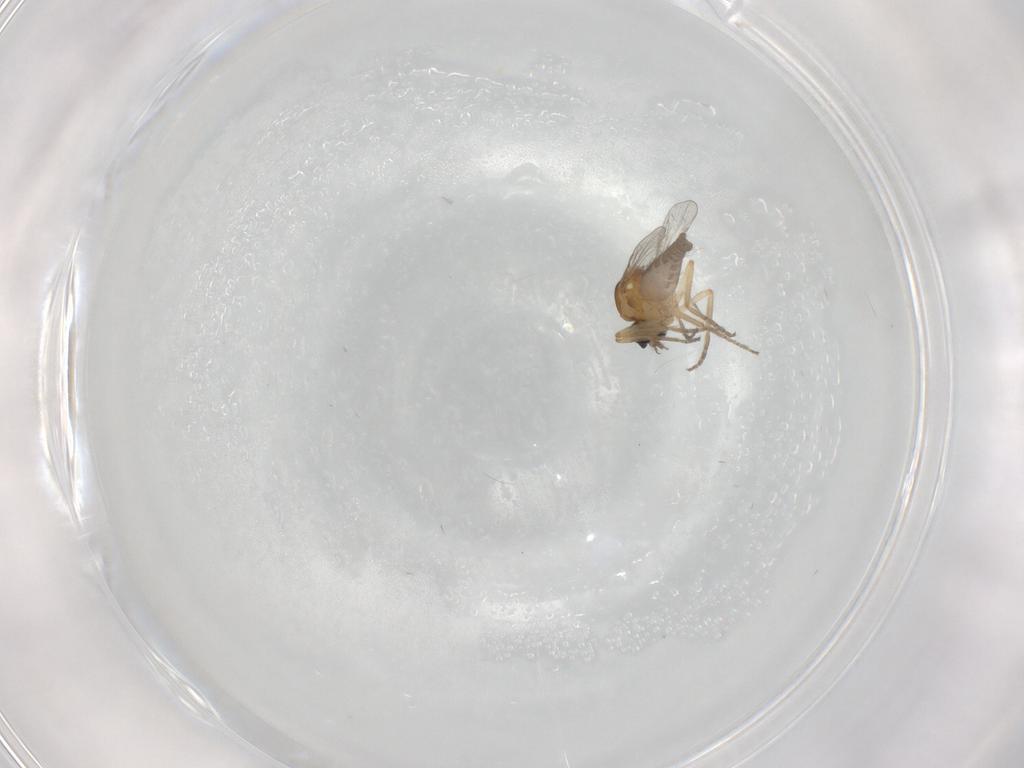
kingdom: Animalia
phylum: Arthropoda
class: Insecta
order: Diptera
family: Ceratopogonidae
